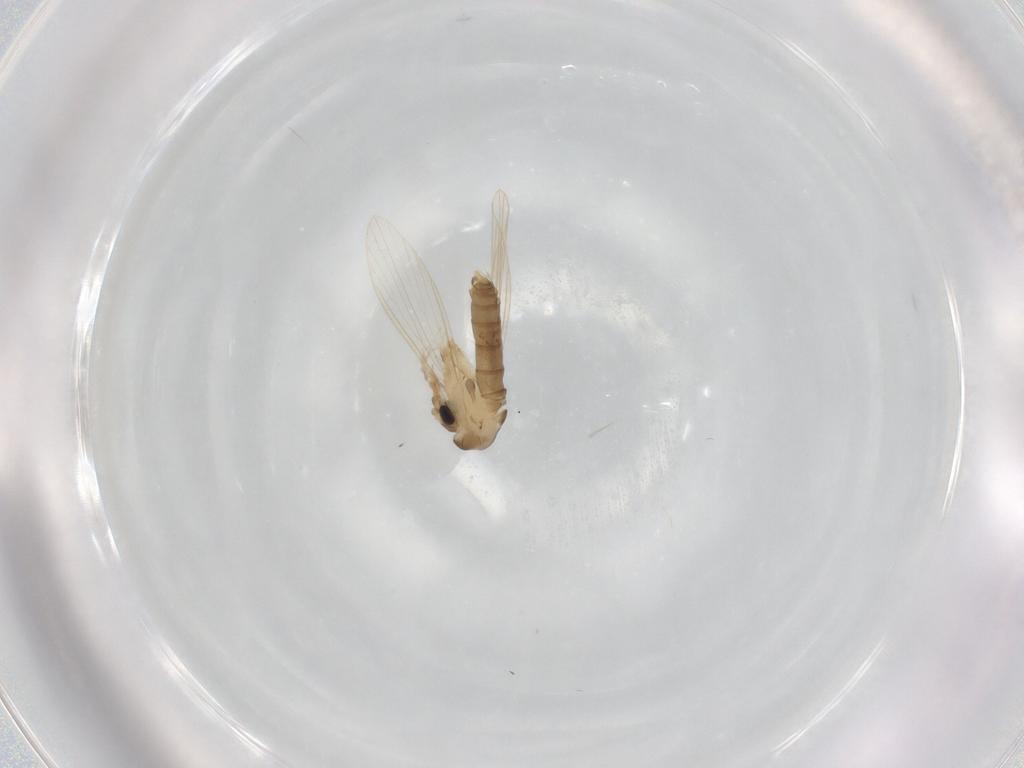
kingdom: Animalia
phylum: Arthropoda
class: Insecta
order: Diptera
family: Psychodidae
